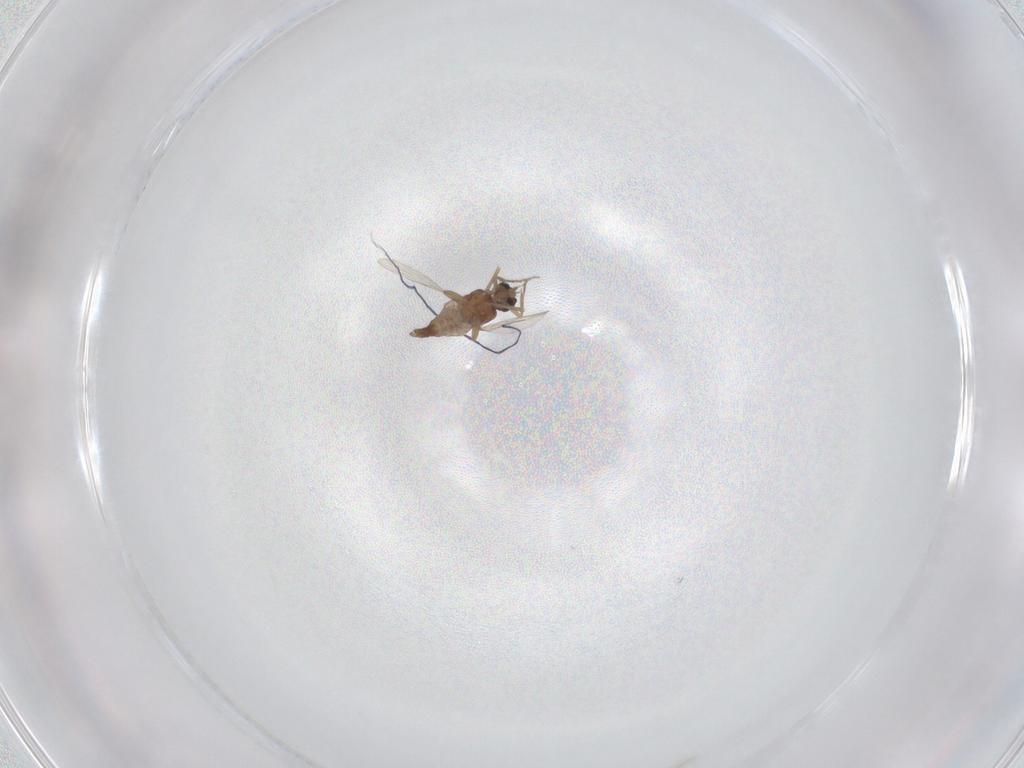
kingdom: Animalia
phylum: Arthropoda
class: Insecta
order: Diptera
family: Ceratopogonidae
